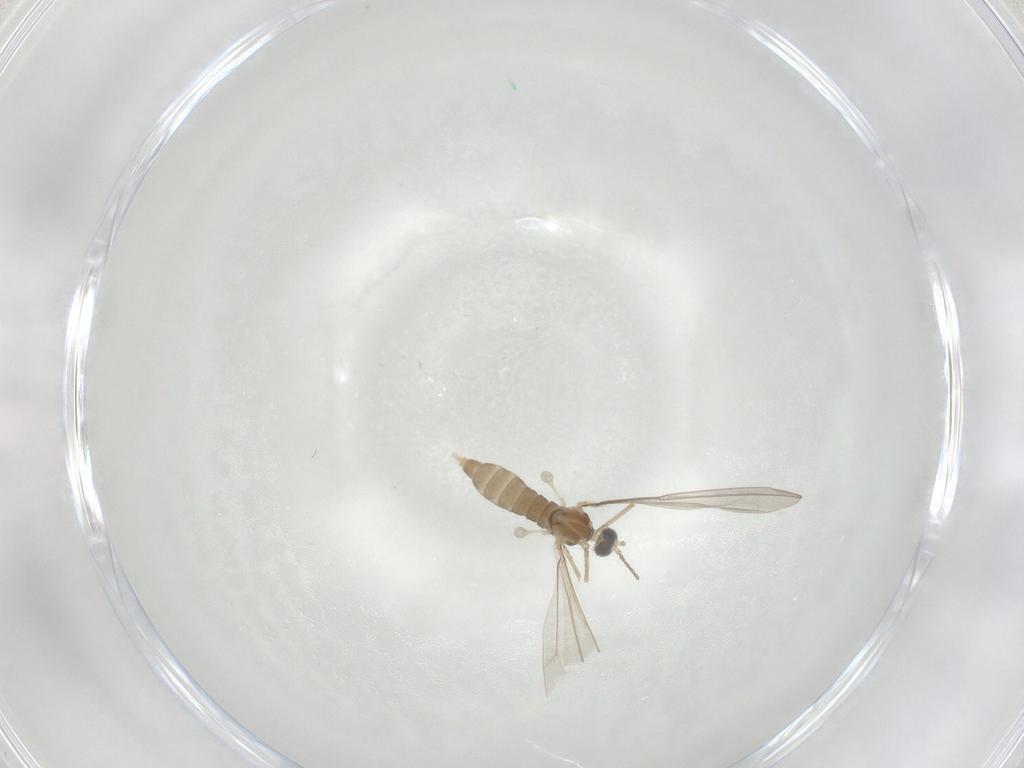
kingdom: Animalia
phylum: Arthropoda
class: Insecta
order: Diptera
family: Cecidomyiidae
